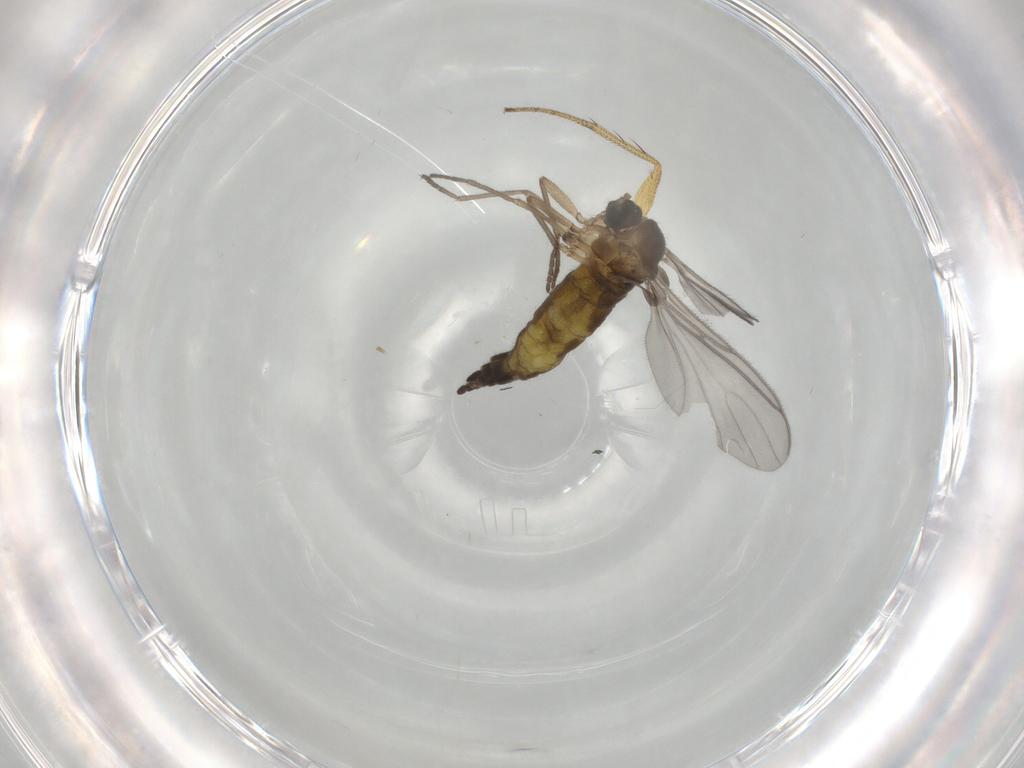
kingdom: Animalia
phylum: Arthropoda
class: Insecta
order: Diptera
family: Sciaridae
